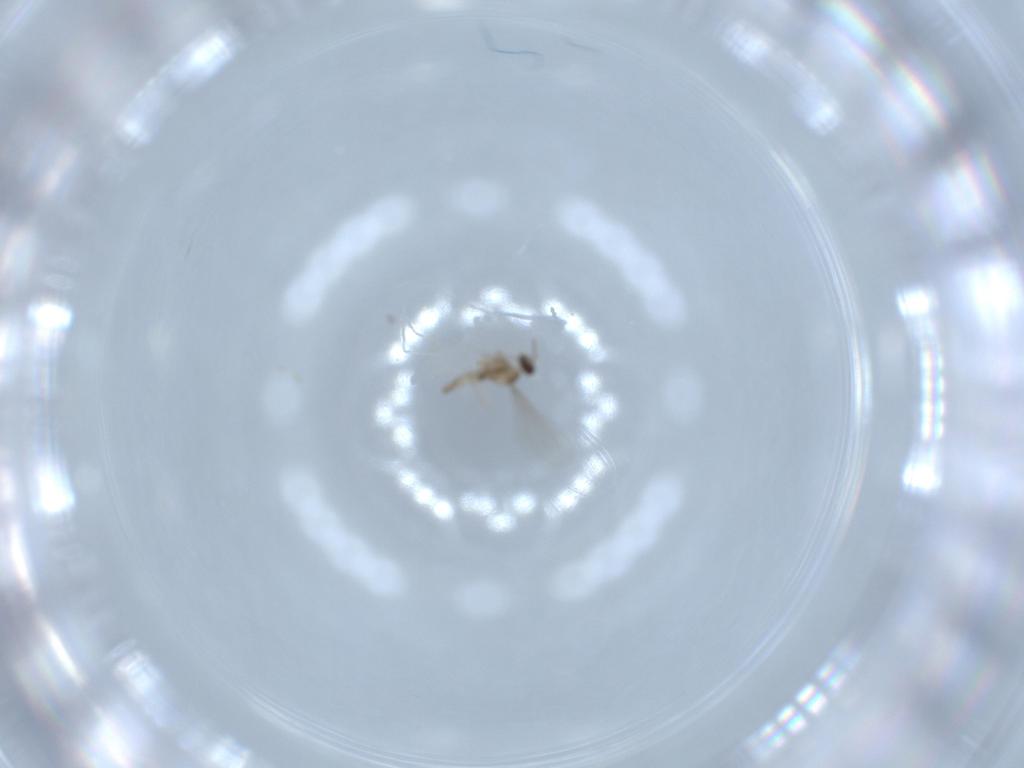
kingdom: Animalia
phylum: Arthropoda
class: Insecta
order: Diptera
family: Cecidomyiidae
